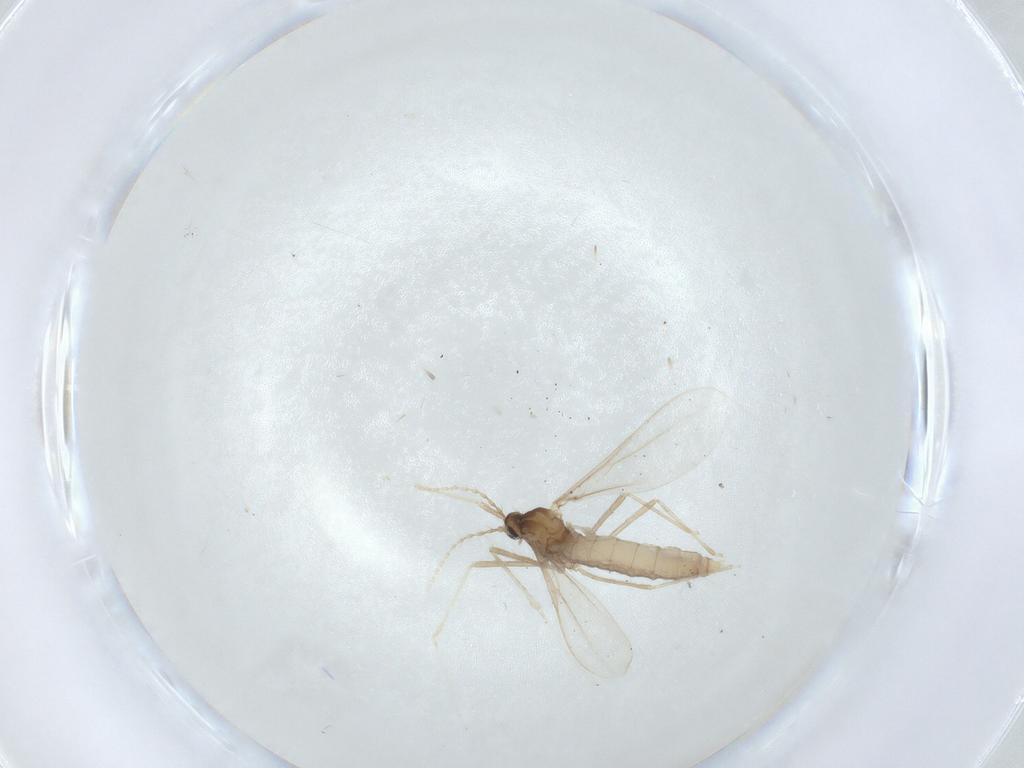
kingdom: Animalia
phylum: Arthropoda
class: Insecta
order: Diptera
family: Cecidomyiidae
